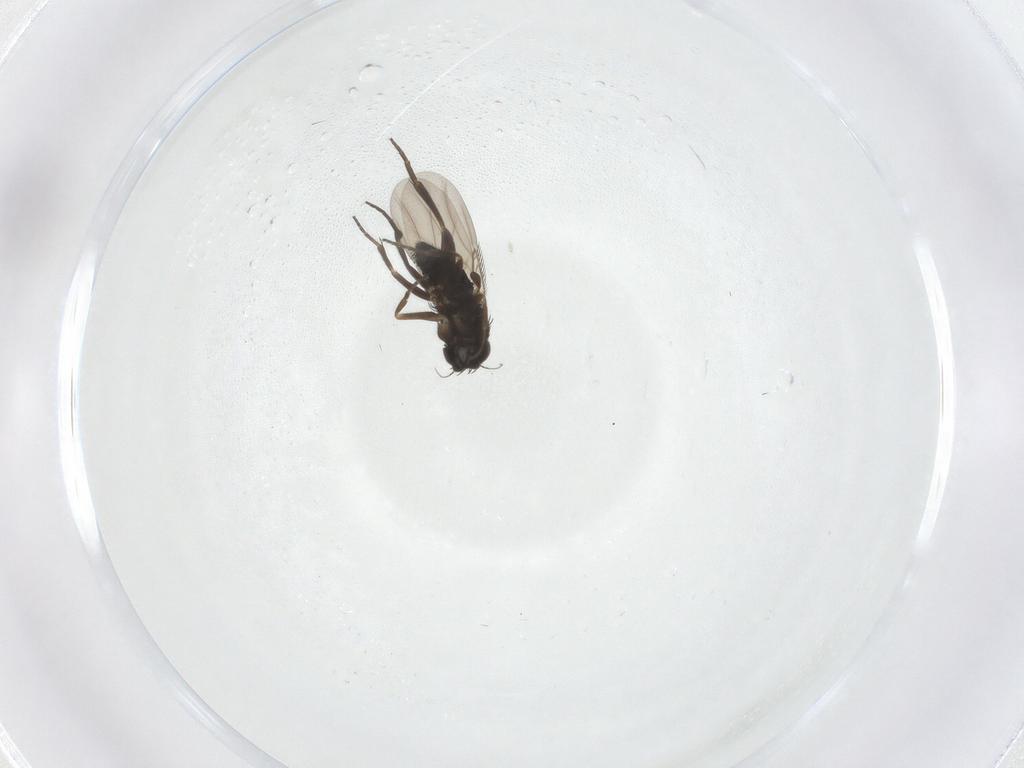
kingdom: Animalia
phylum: Arthropoda
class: Insecta
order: Diptera
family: Phoridae
